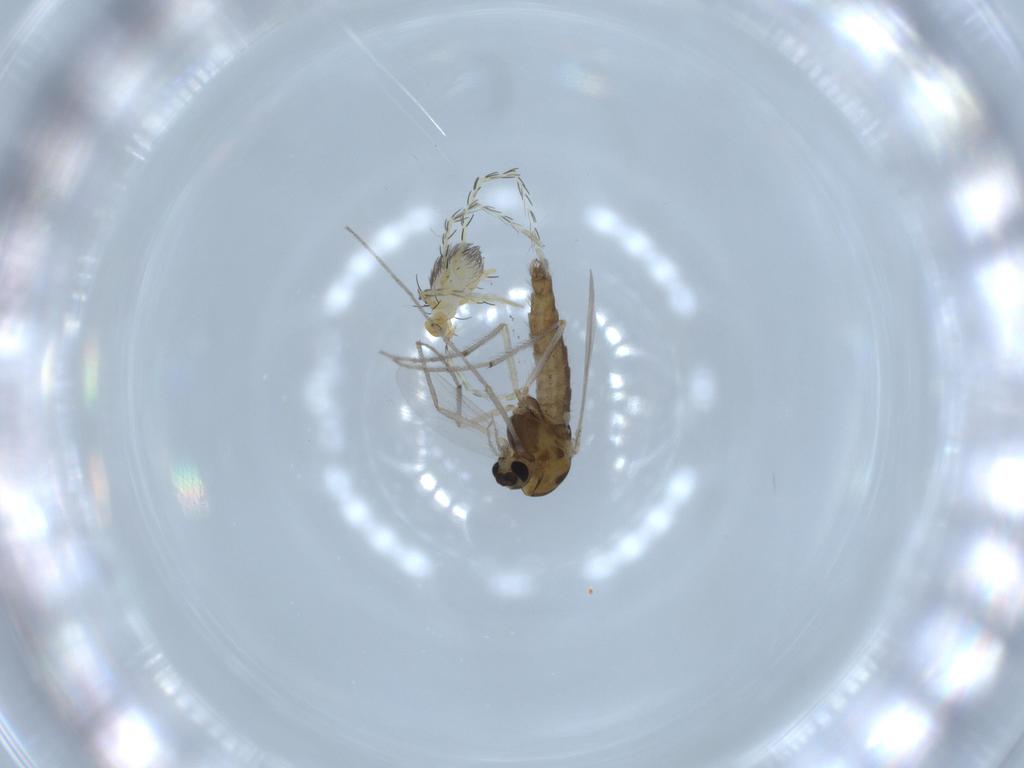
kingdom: Animalia
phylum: Arthropoda
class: Insecta
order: Diptera
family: Chironomidae
